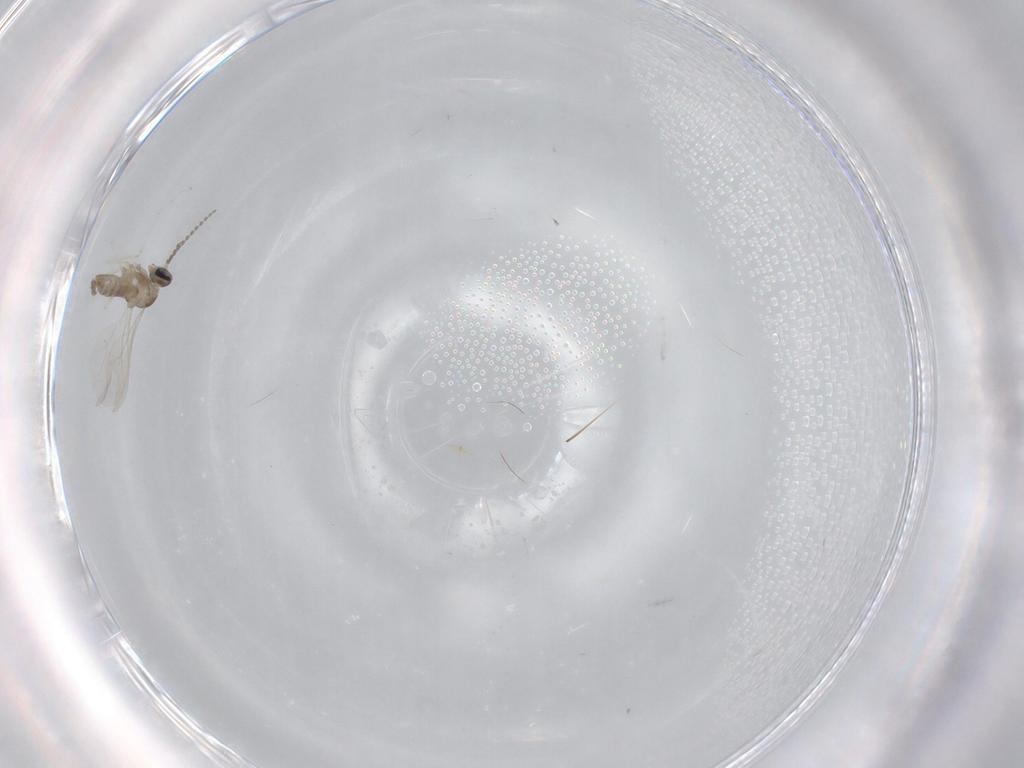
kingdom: Animalia
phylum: Arthropoda
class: Insecta
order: Diptera
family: Cecidomyiidae
